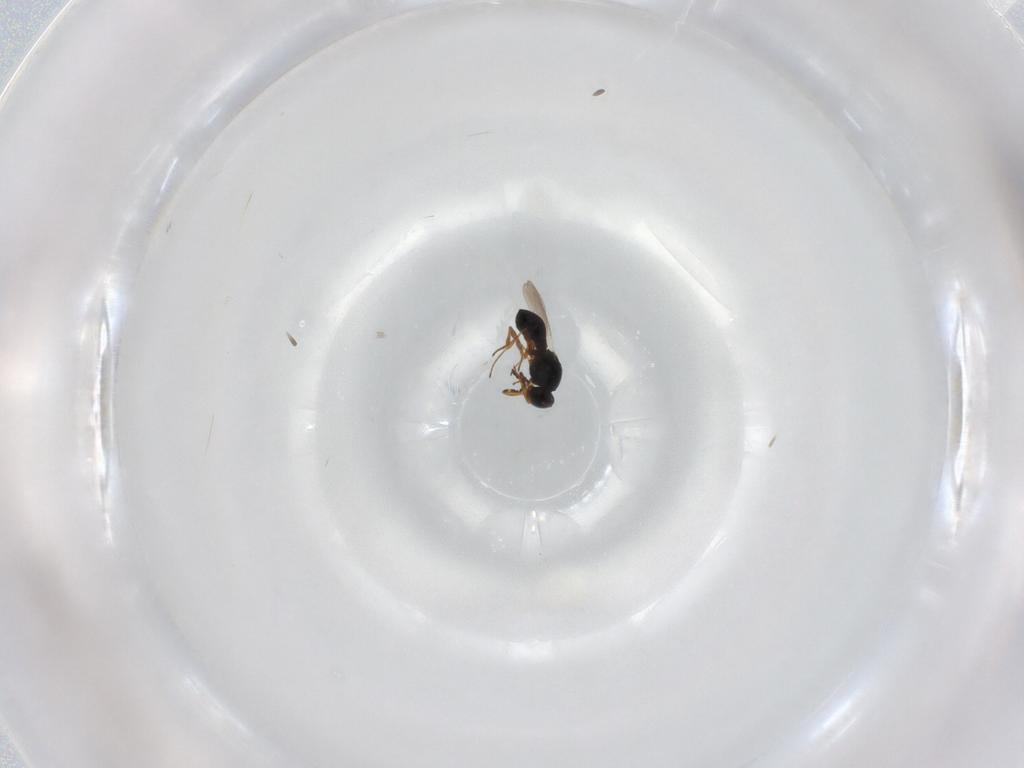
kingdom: Animalia
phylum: Arthropoda
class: Insecta
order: Hymenoptera
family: Platygastridae
